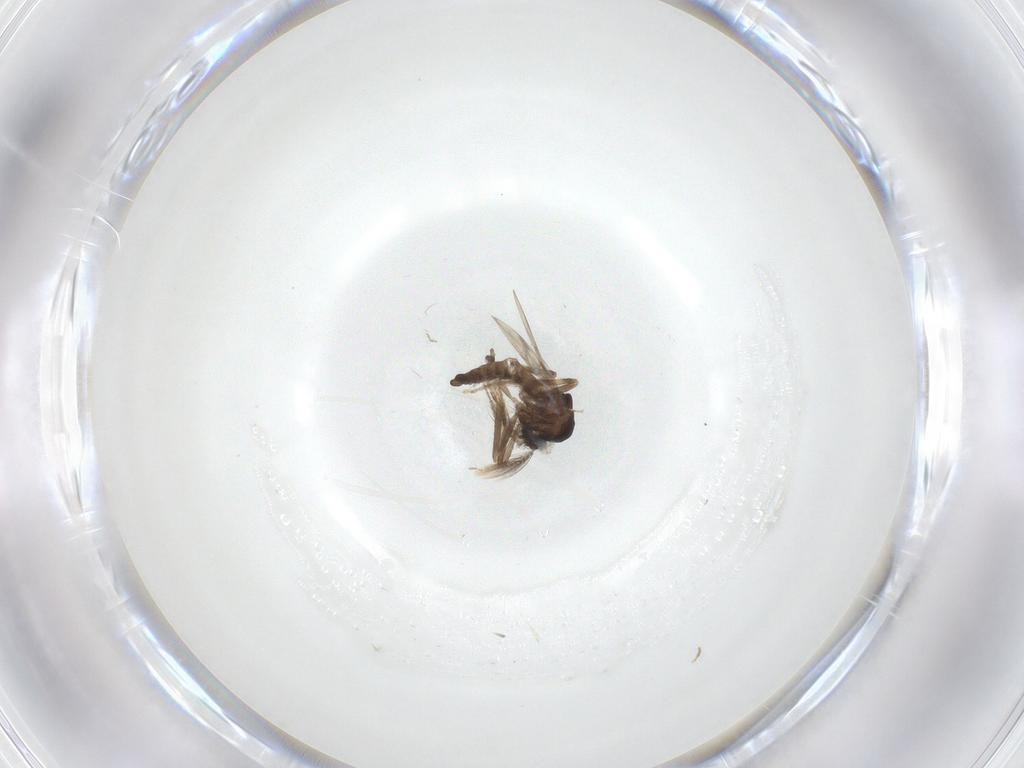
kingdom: Animalia
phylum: Arthropoda
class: Insecta
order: Diptera
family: Ceratopogonidae
